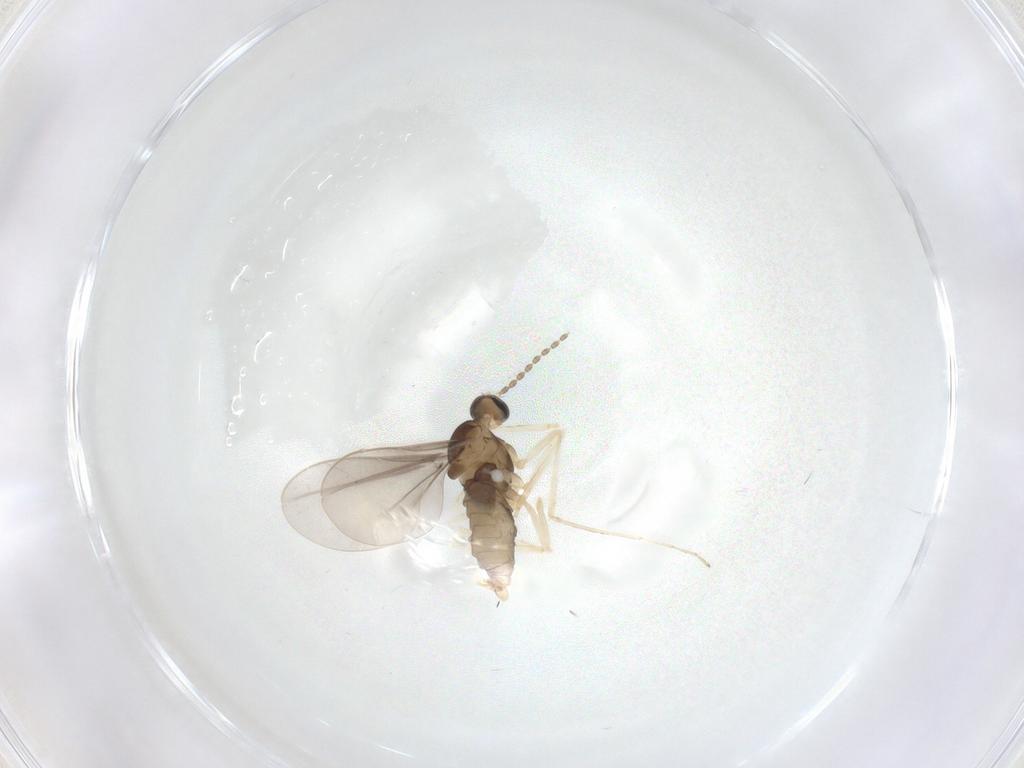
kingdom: Animalia
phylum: Arthropoda
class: Insecta
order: Diptera
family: Cecidomyiidae
